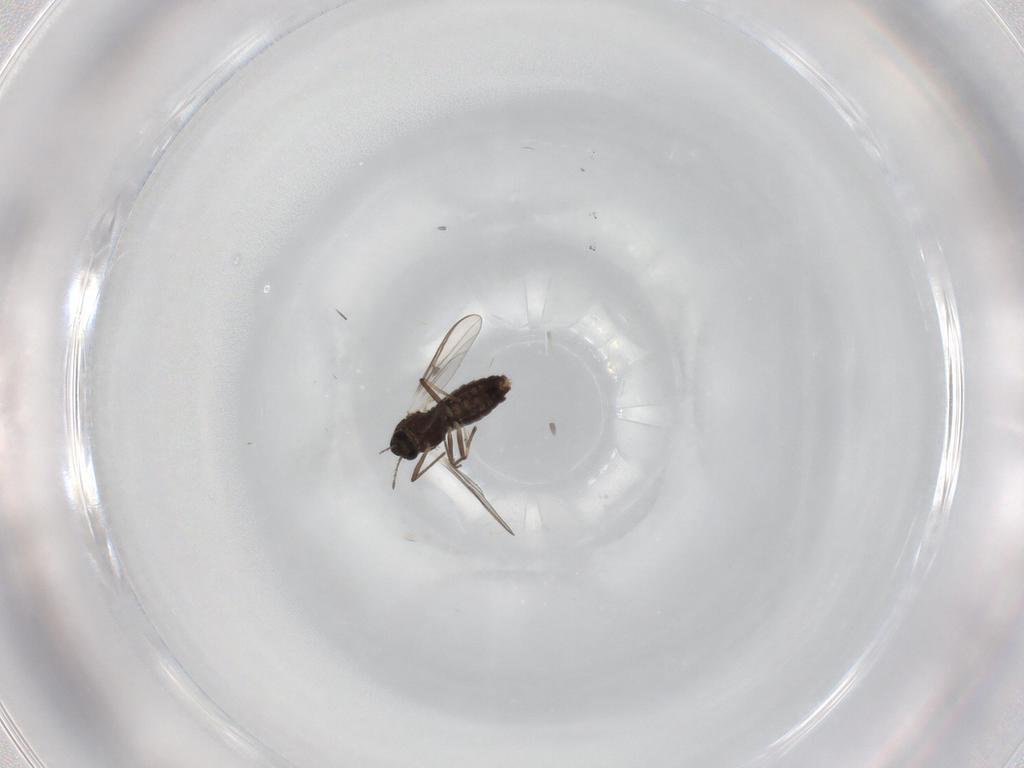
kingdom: Animalia
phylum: Arthropoda
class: Insecta
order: Diptera
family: Chironomidae
